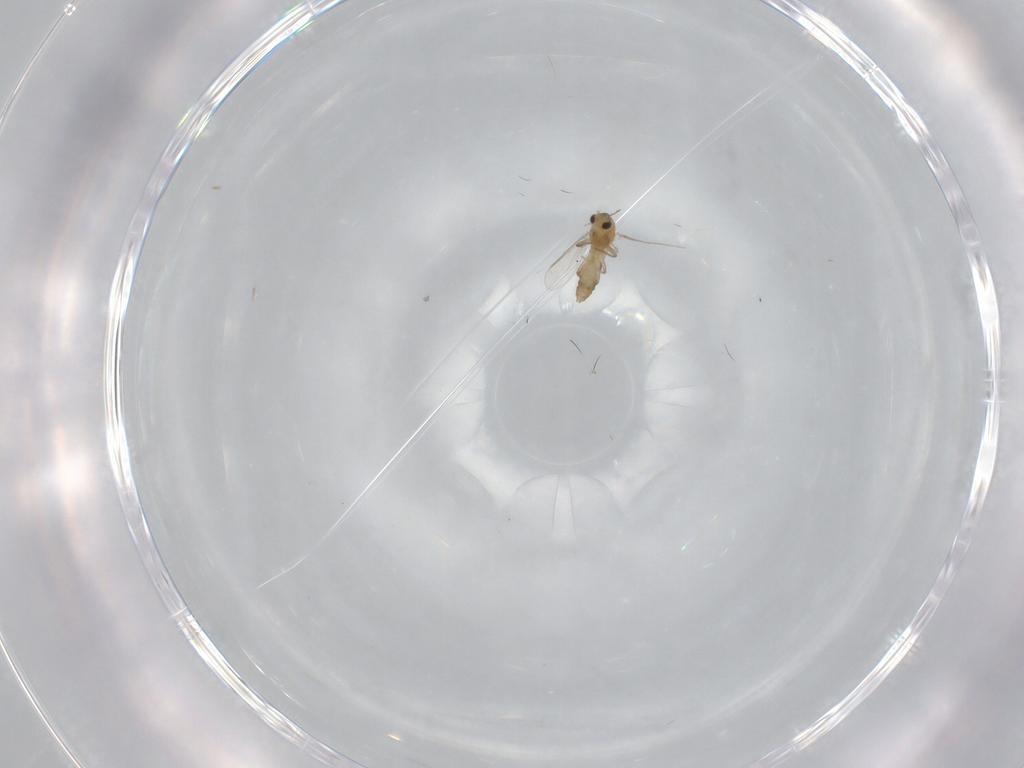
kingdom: Animalia
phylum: Arthropoda
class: Insecta
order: Diptera
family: Chironomidae
